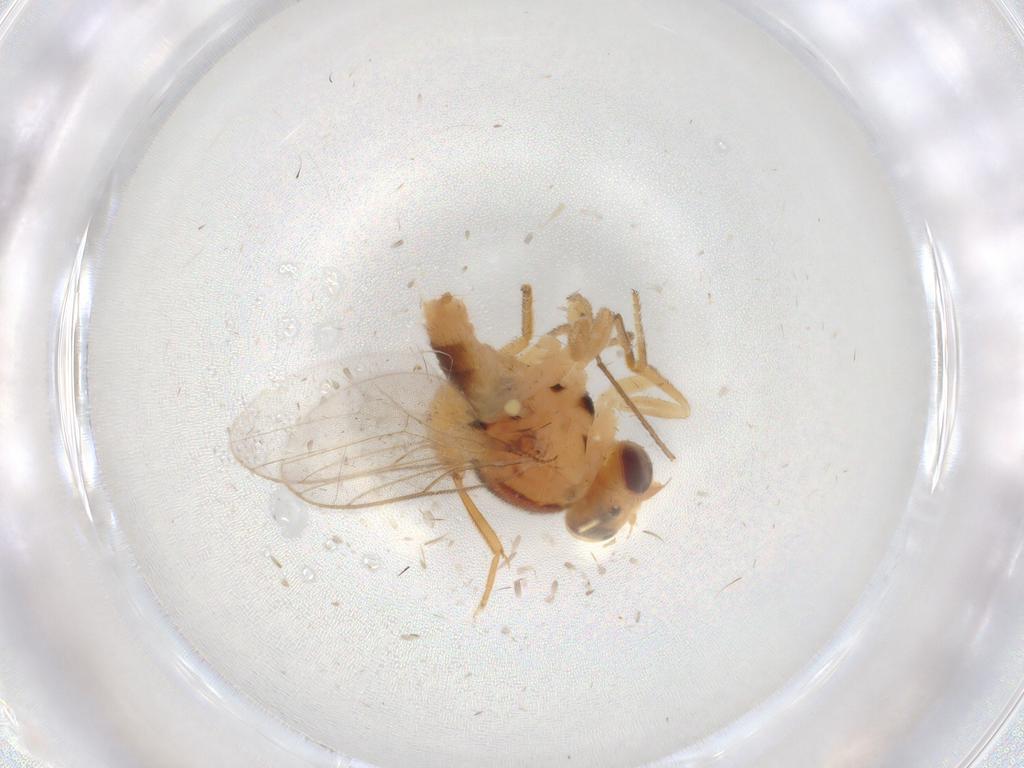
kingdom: Animalia
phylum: Arthropoda
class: Insecta
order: Diptera
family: Chloropidae
